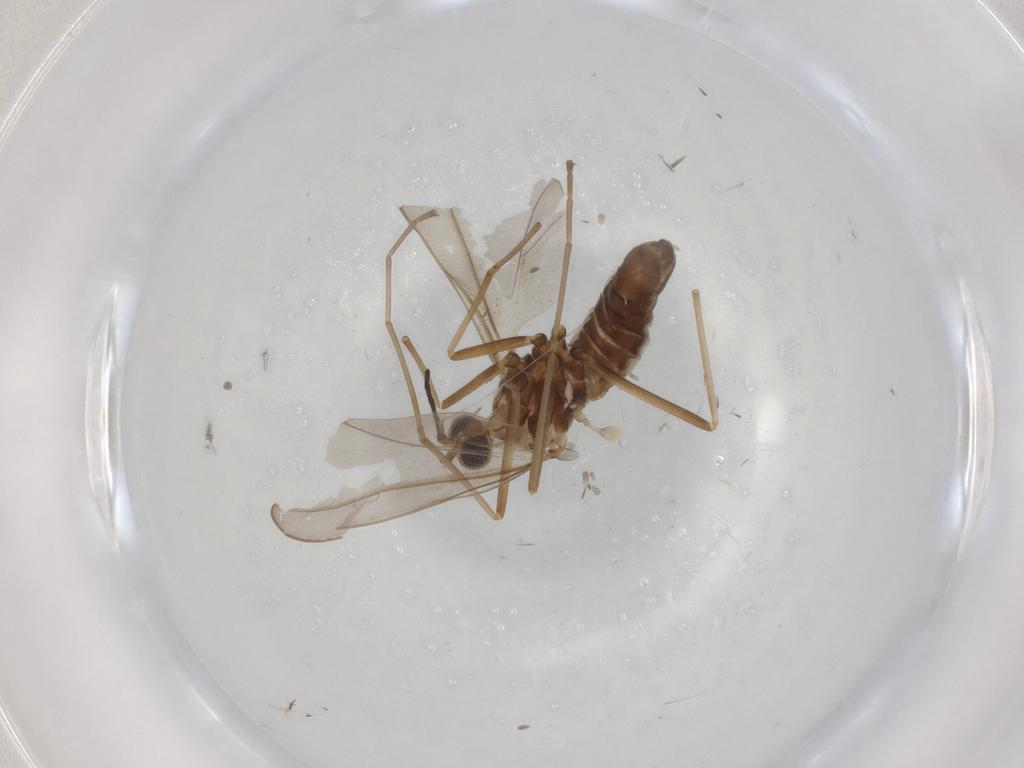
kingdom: Animalia
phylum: Arthropoda
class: Insecta
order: Diptera
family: Cecidomyiidae
